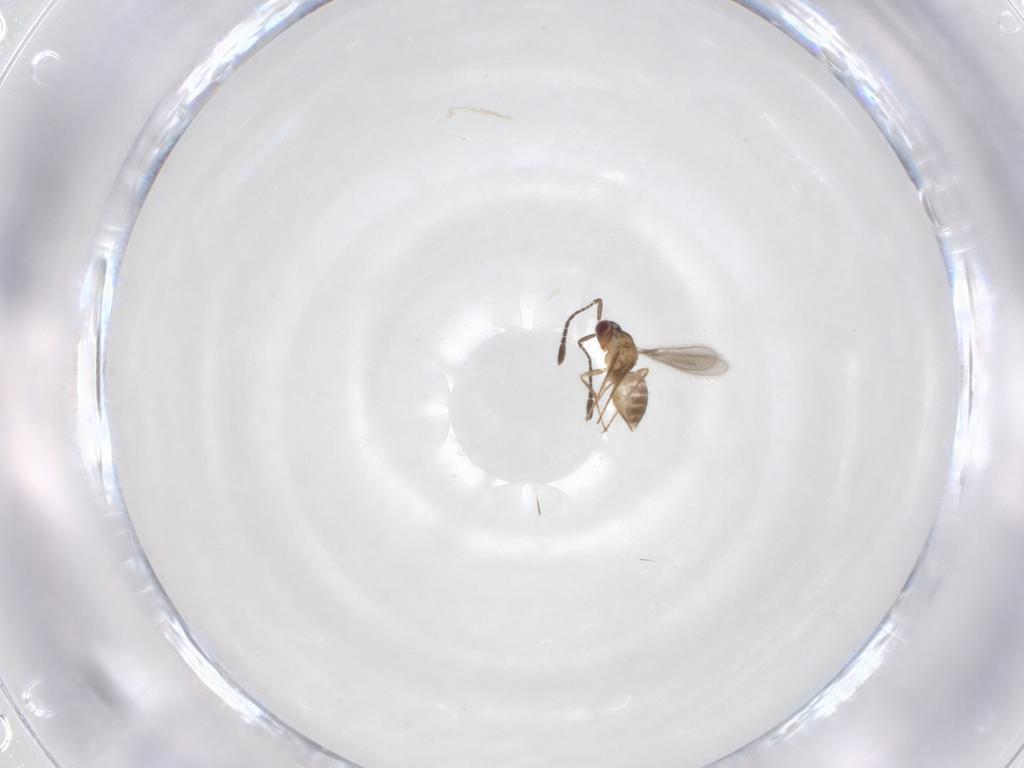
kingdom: Animalia
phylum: Arthropoda
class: Insecta
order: Hymenoptera
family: Mymaridae
